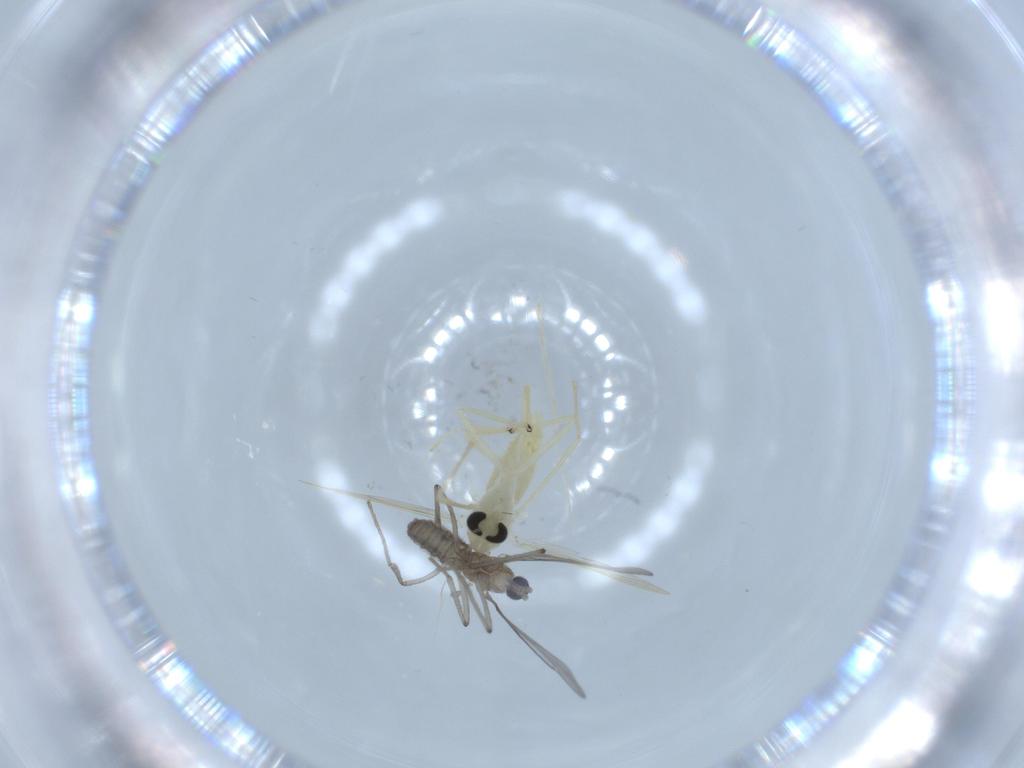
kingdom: Animalia
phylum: Arthropoda
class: Insecta
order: Diptera
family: Chironomidae
